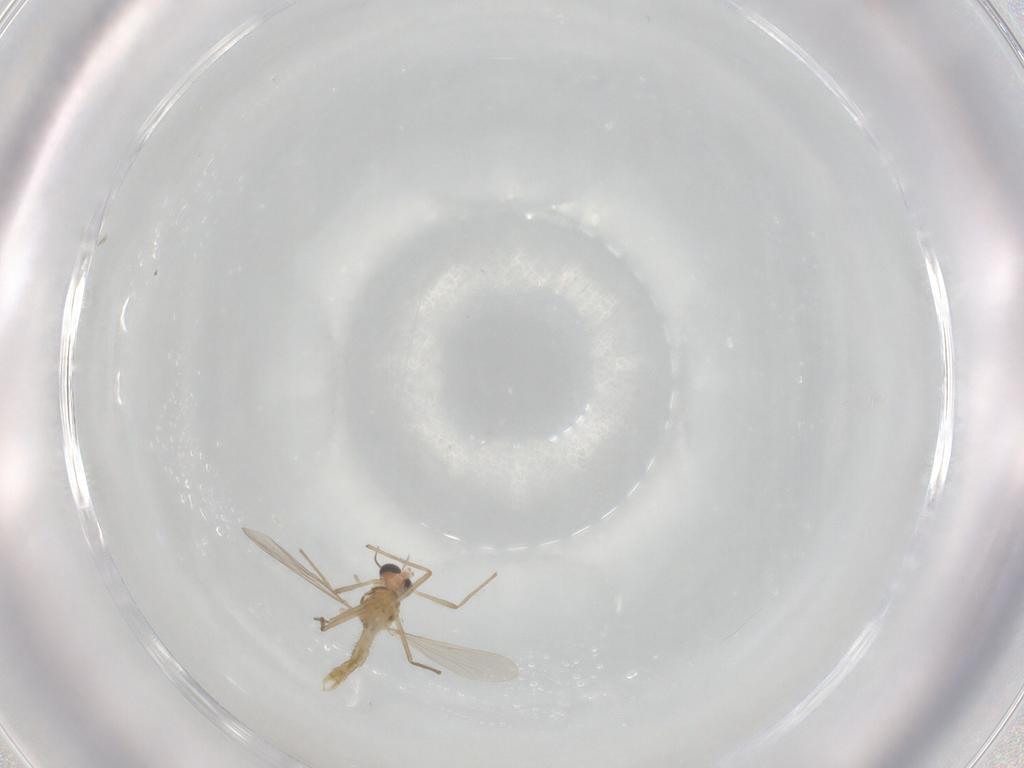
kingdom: Animalia
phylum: Arthropoda
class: Insecta
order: Diptera
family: Chironomidae
